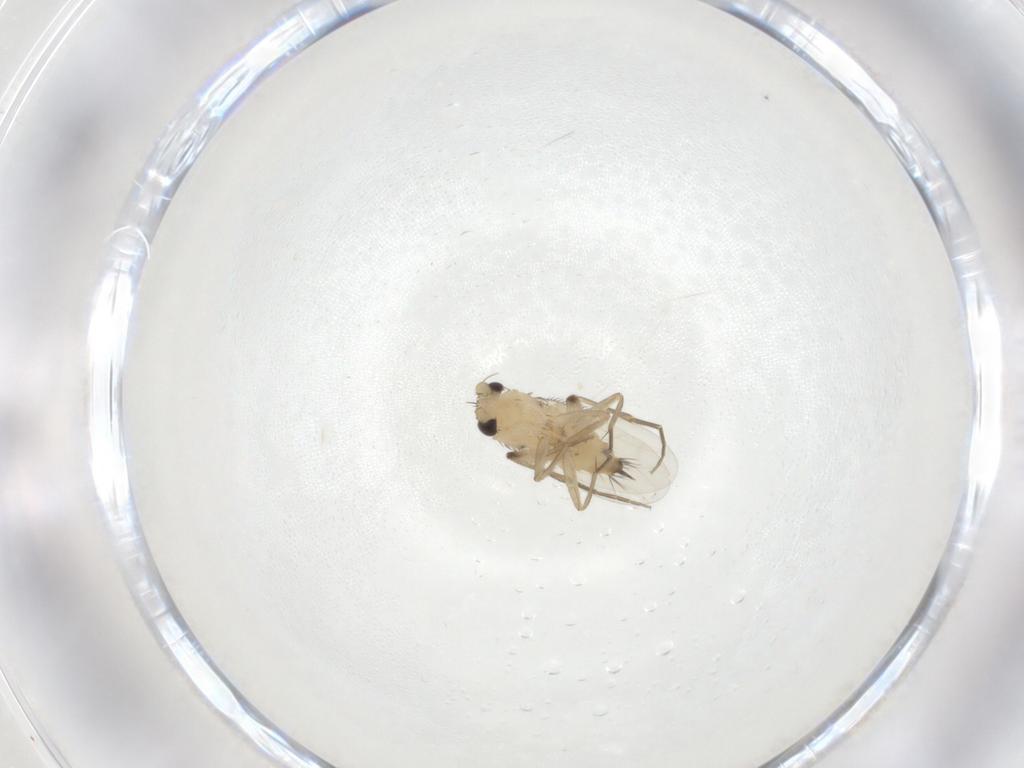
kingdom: Animalia
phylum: Arthropoda
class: Insecta
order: Diptera
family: Phoridae
